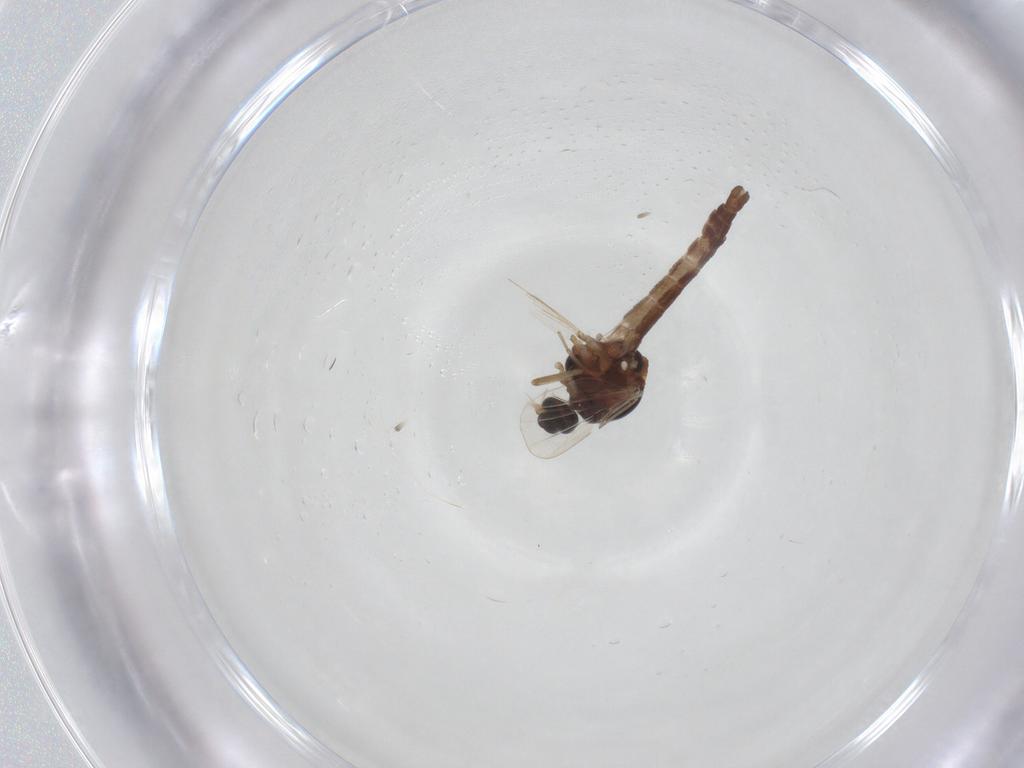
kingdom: Animalia
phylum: Arthropoda
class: Insecta
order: Diptera
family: Ceratopogonidae
